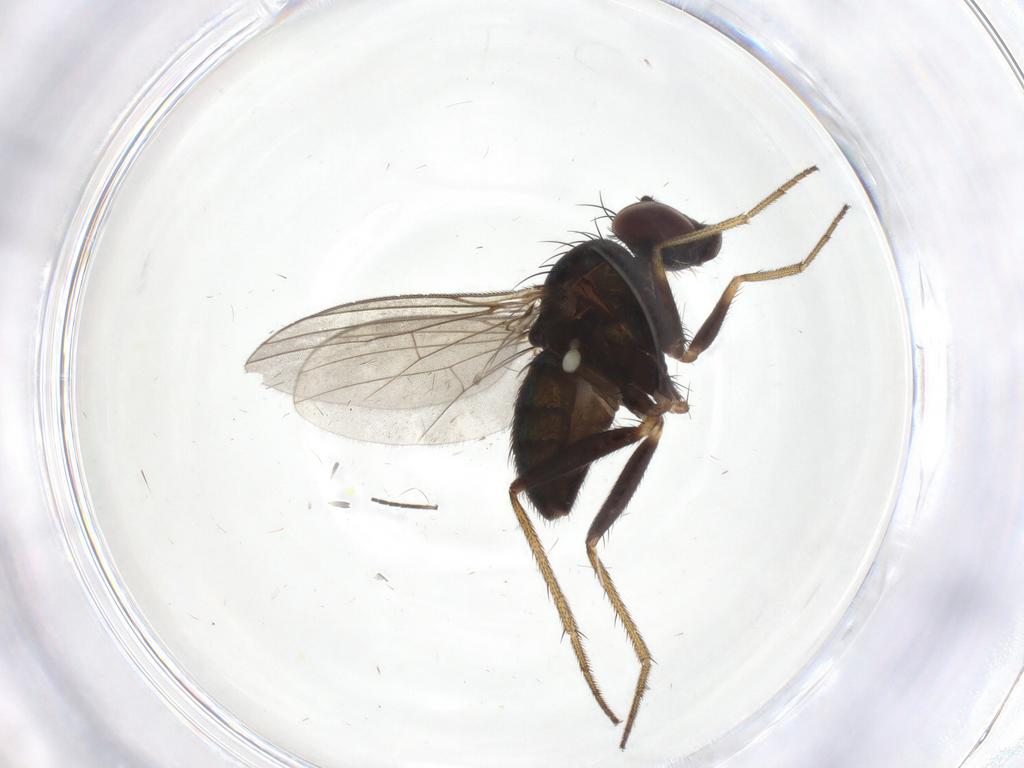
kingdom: Animalia
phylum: Arthropoda
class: Insecta
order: Diptera
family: Dolichopodidae
